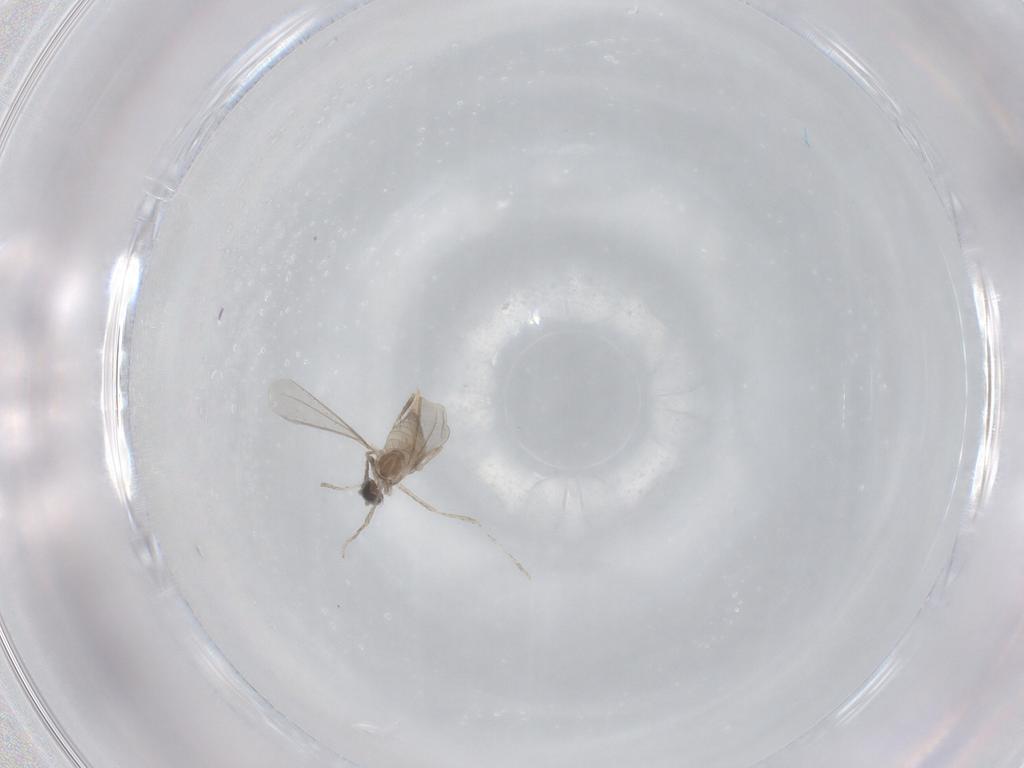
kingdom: Animalia
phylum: Arthropoda
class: Insecta
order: Diptera
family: Cecidomyiidae
